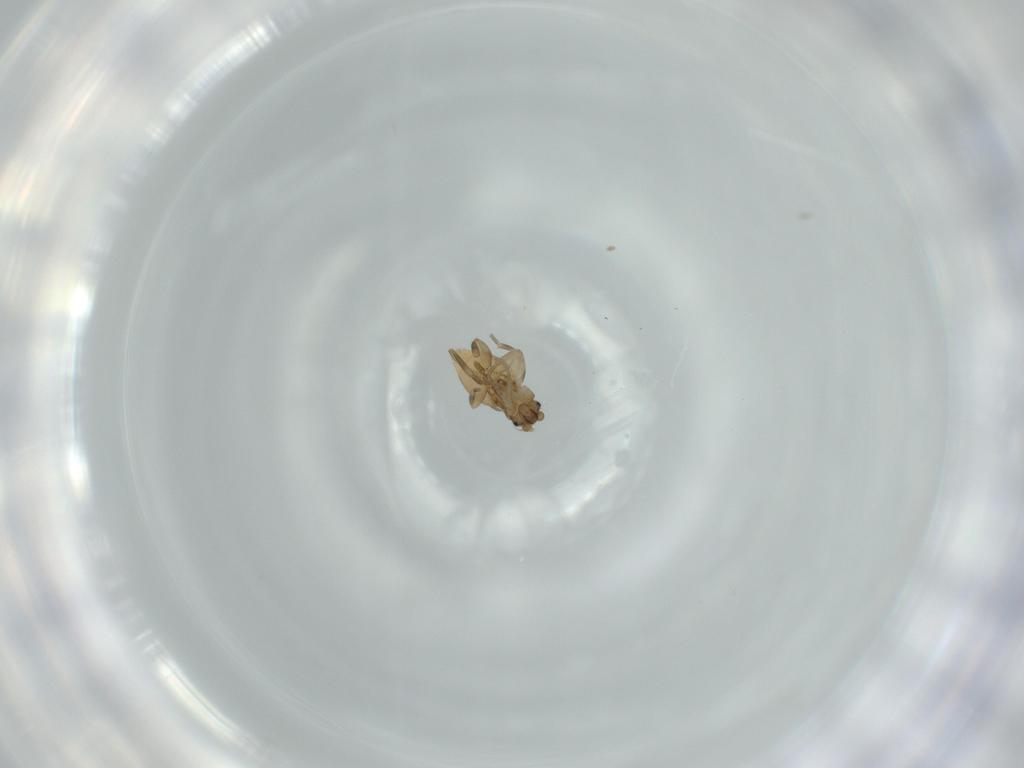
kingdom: Animalia
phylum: Arthropoda
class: Insecta
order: Diptera
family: Phoridae
